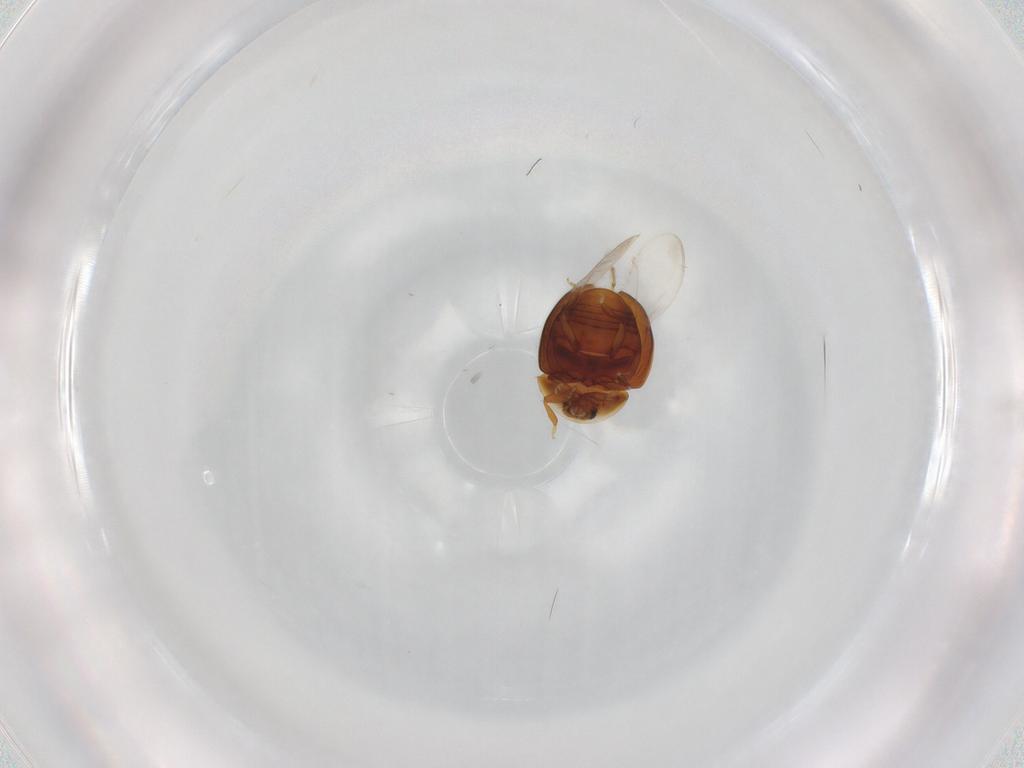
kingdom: Animalia
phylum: Arthropoda
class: Insecta
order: Coleoptera
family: Corylophidae
